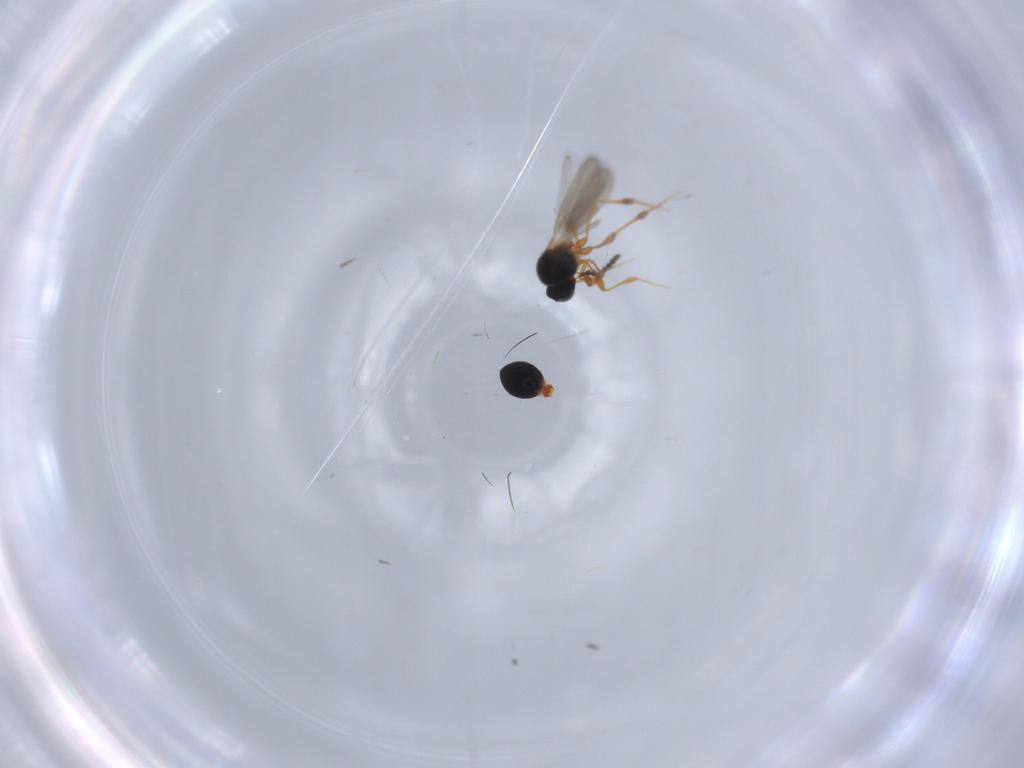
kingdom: Animalia
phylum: Arthropoda
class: Insecta
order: Hymenoptera
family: Platygastridae
